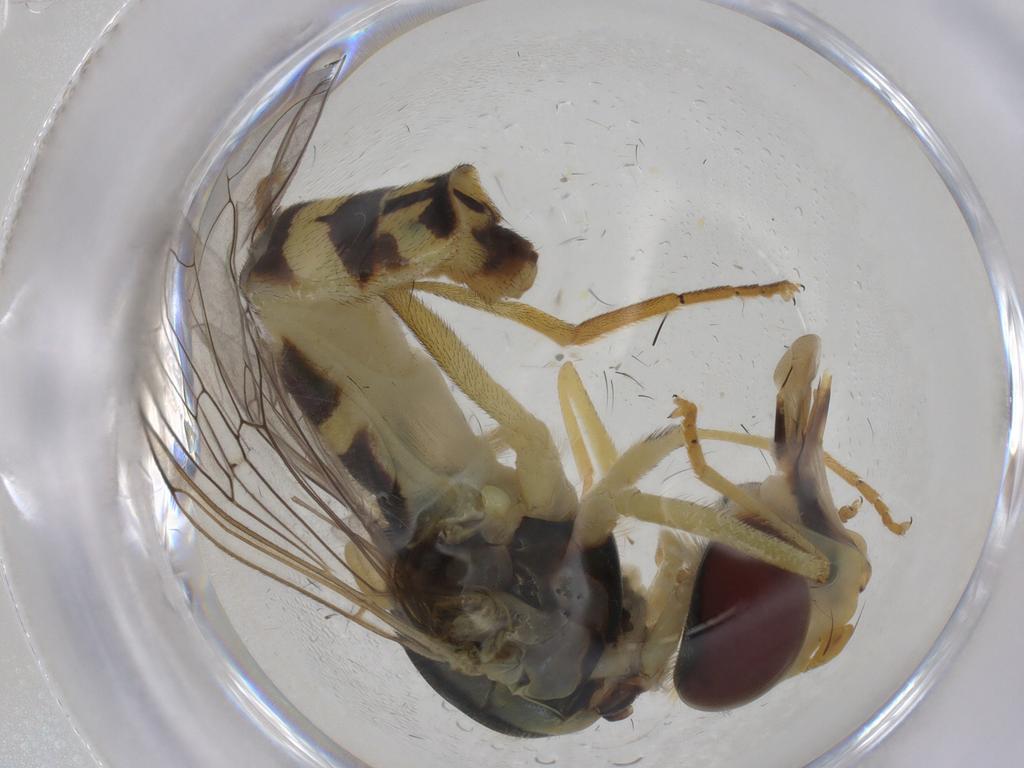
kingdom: Animalia
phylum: Arthropoda
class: Insecta
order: Diptera
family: Syrphidae
